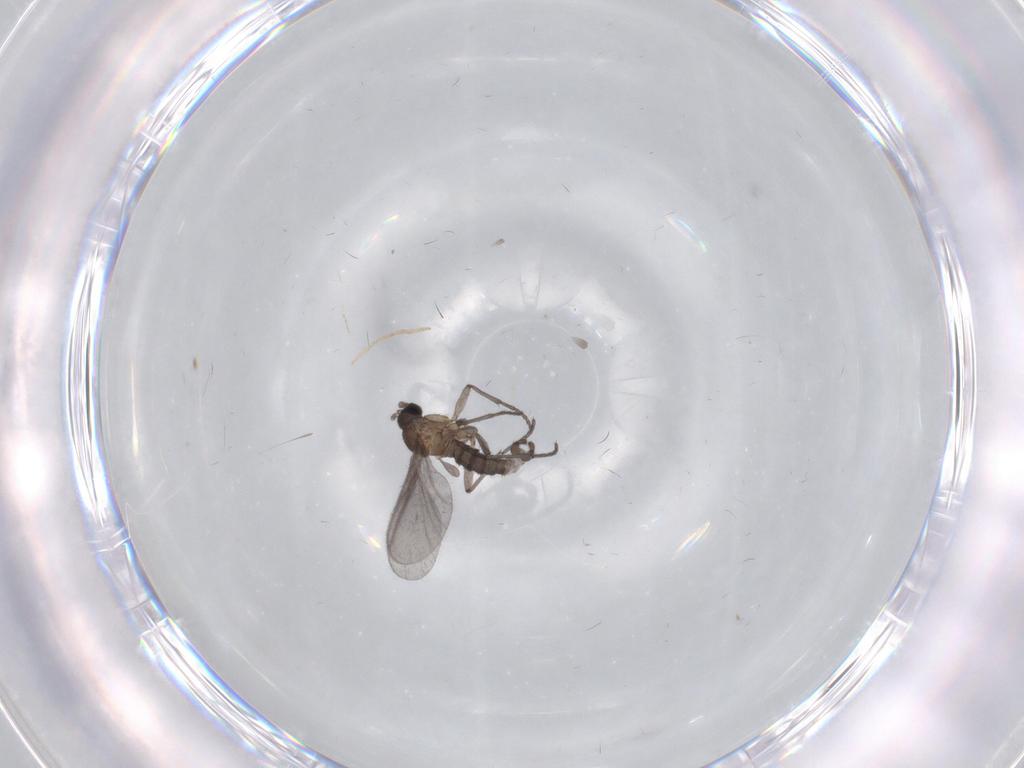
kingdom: Animalia
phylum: Arthropoda
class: Insecta
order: Diptera
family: Sciaridae
